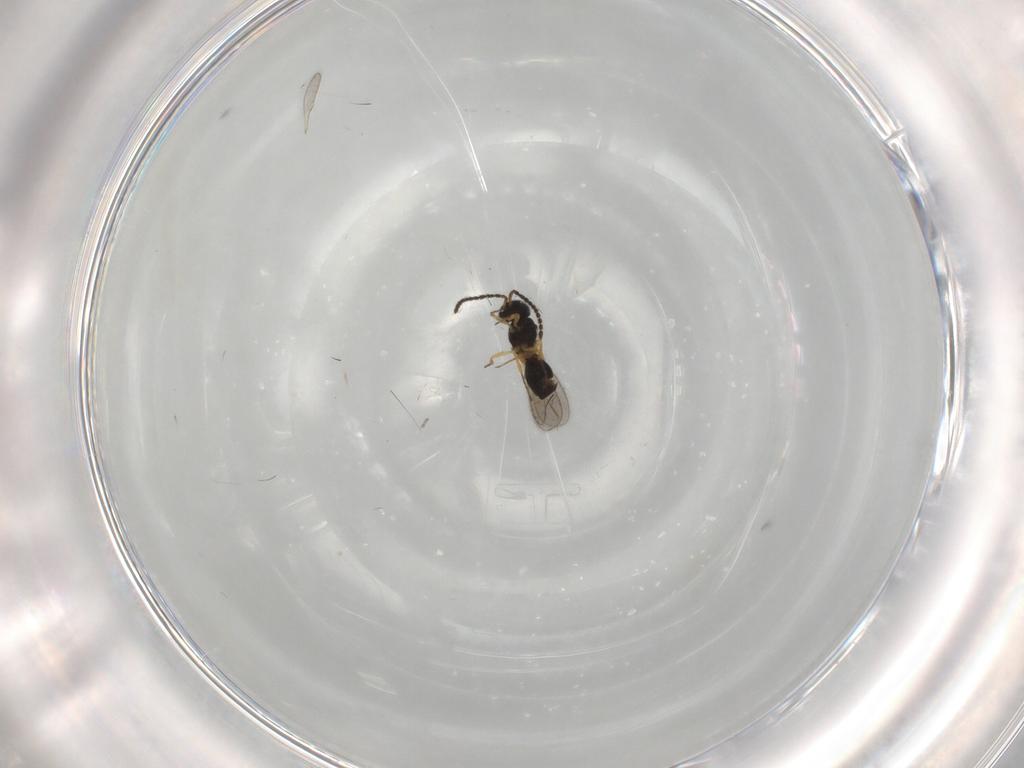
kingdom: Animalia
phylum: Arthropoda
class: Insecta
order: Hymenoptera
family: Scelionidae
